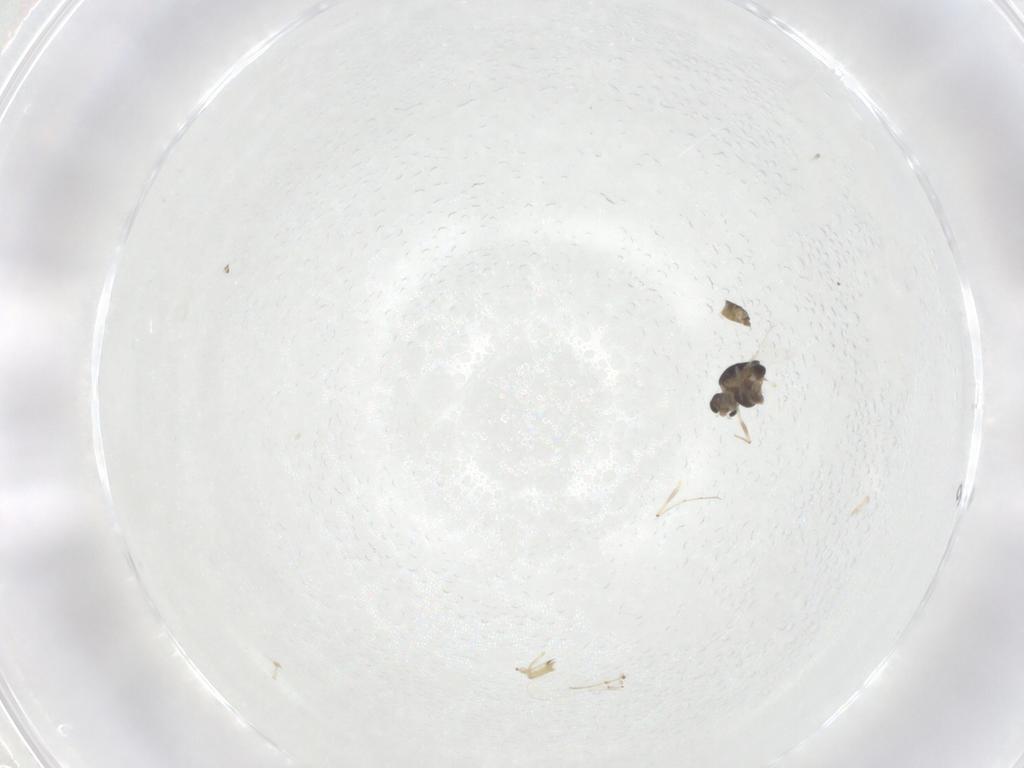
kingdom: Animalia
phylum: Arthropoda
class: Insecta
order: Diptera
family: Chironomidae
